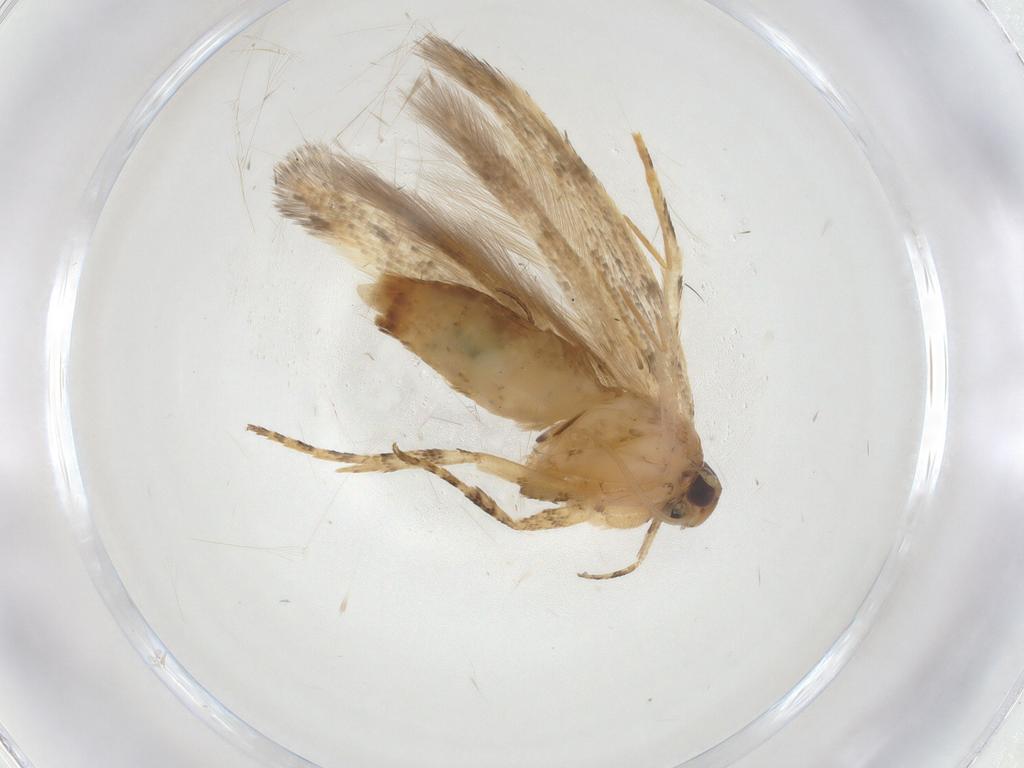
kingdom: Animalia
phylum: Arthropoda
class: Insecta
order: Lepidoptera
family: Gelechiidae
